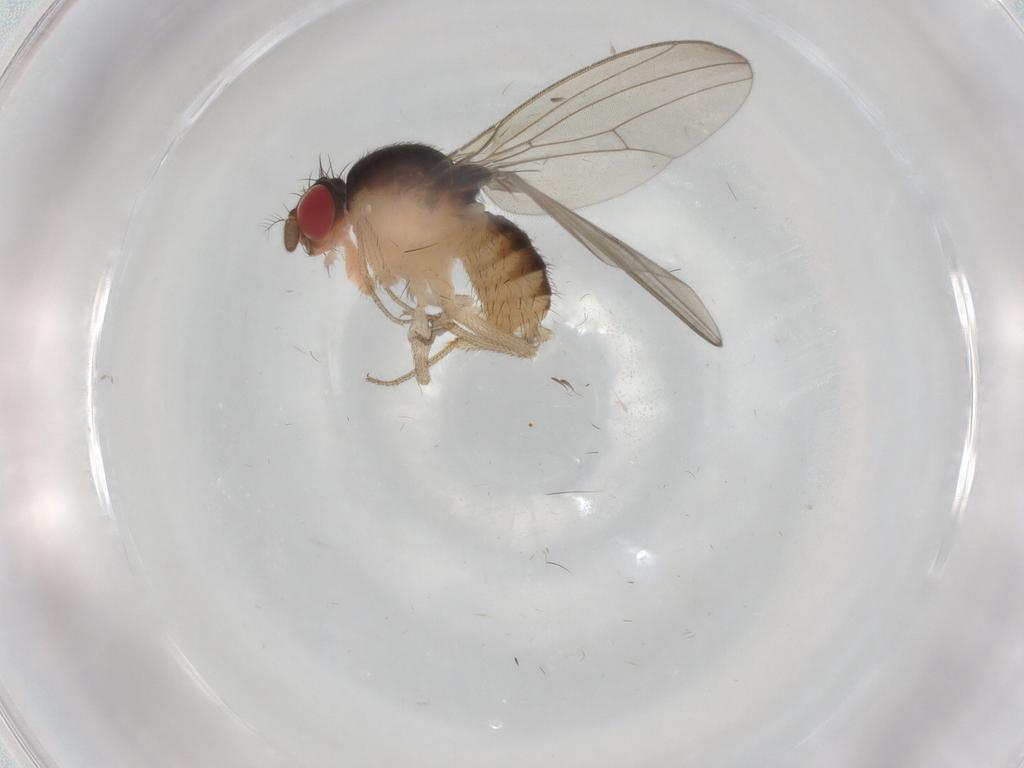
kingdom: Animalia
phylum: Arthropoda
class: Insecta
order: Diptera
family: Drosophilidae
